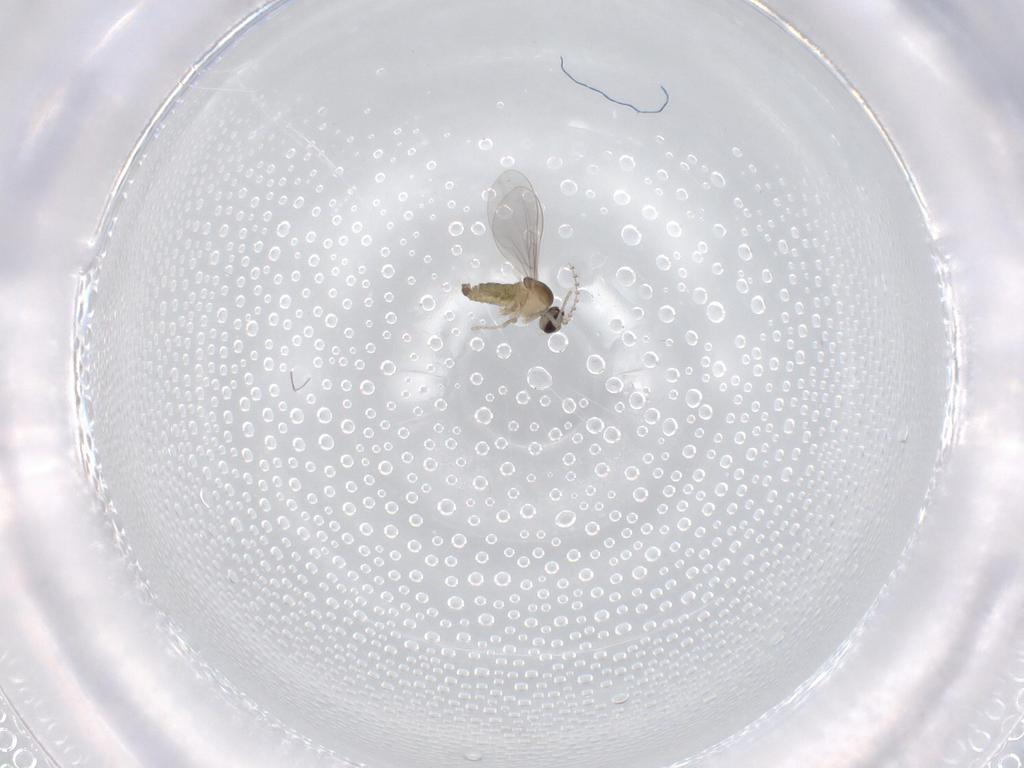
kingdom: Animalia
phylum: Arthropoda
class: Insecta
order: Diptera
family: Cecidomyiidae
